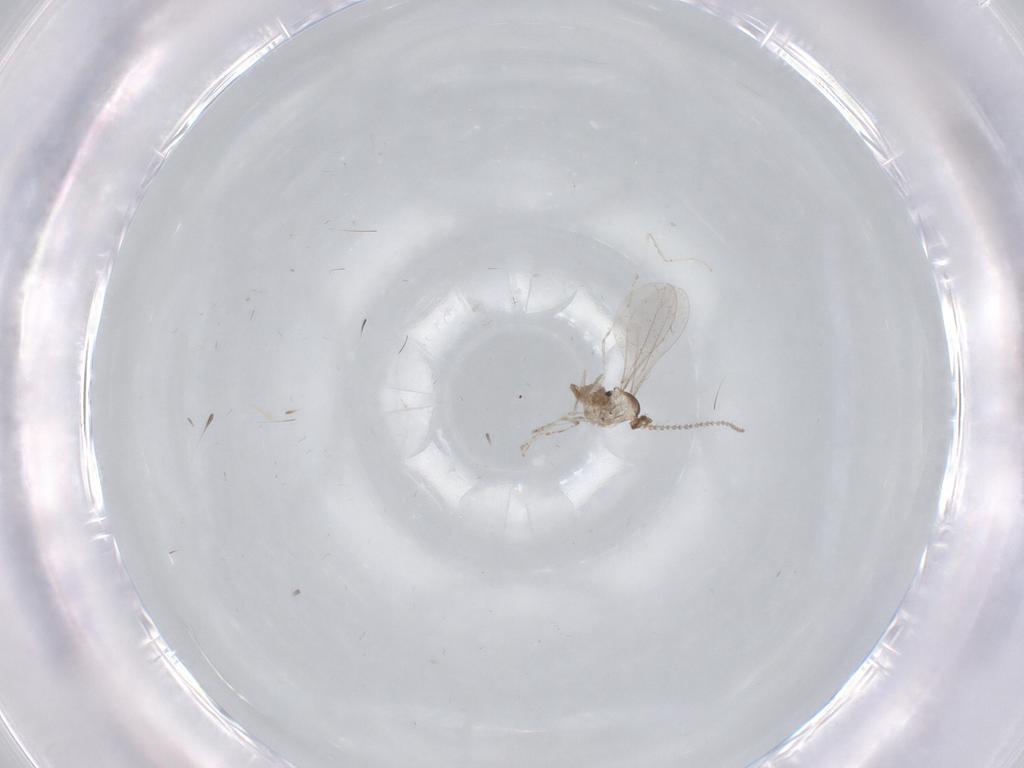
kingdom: Animalia
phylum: Arthropoda
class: Insecta
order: Diptera
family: Cecidomyiidae
